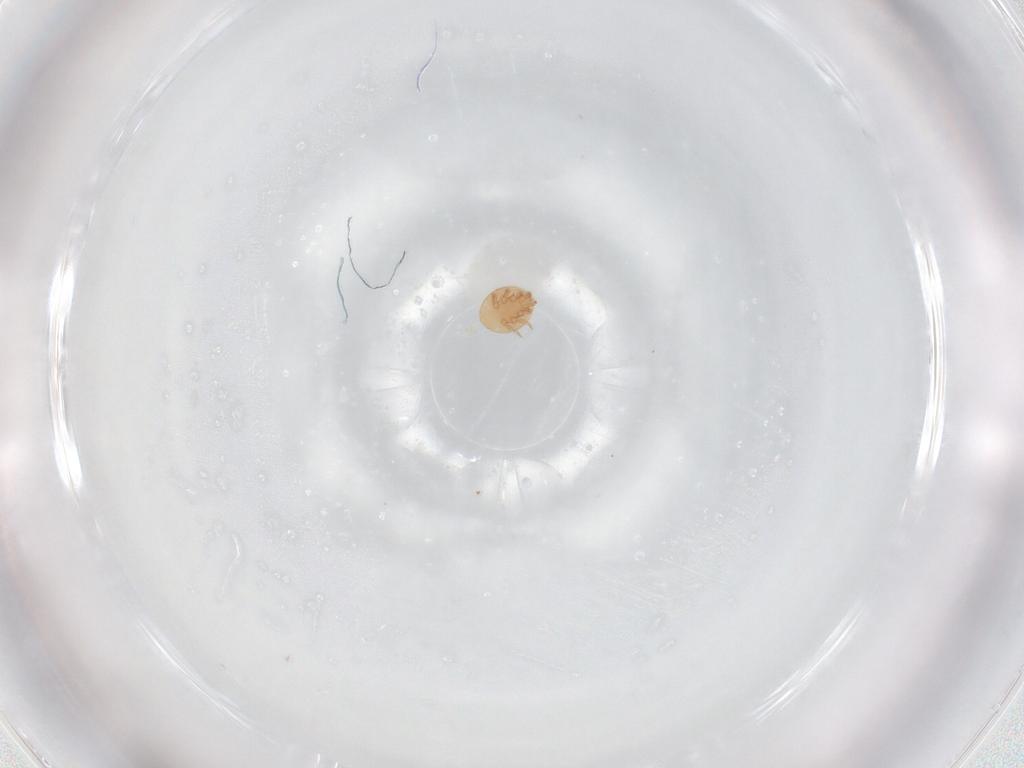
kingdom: Animalia
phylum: Arthropoda
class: Arachnida
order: Mesostigmata
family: Trematuridae
